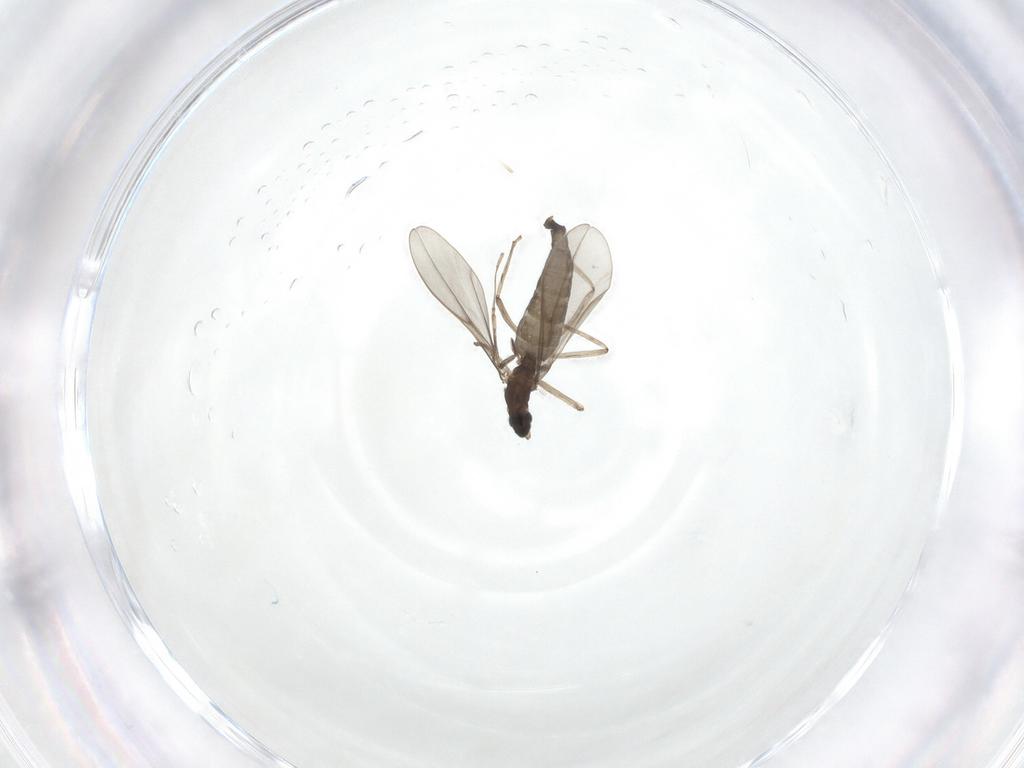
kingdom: Animalia
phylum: Arthropoda
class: Insecta
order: Diptera
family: Cecidomyiidae
